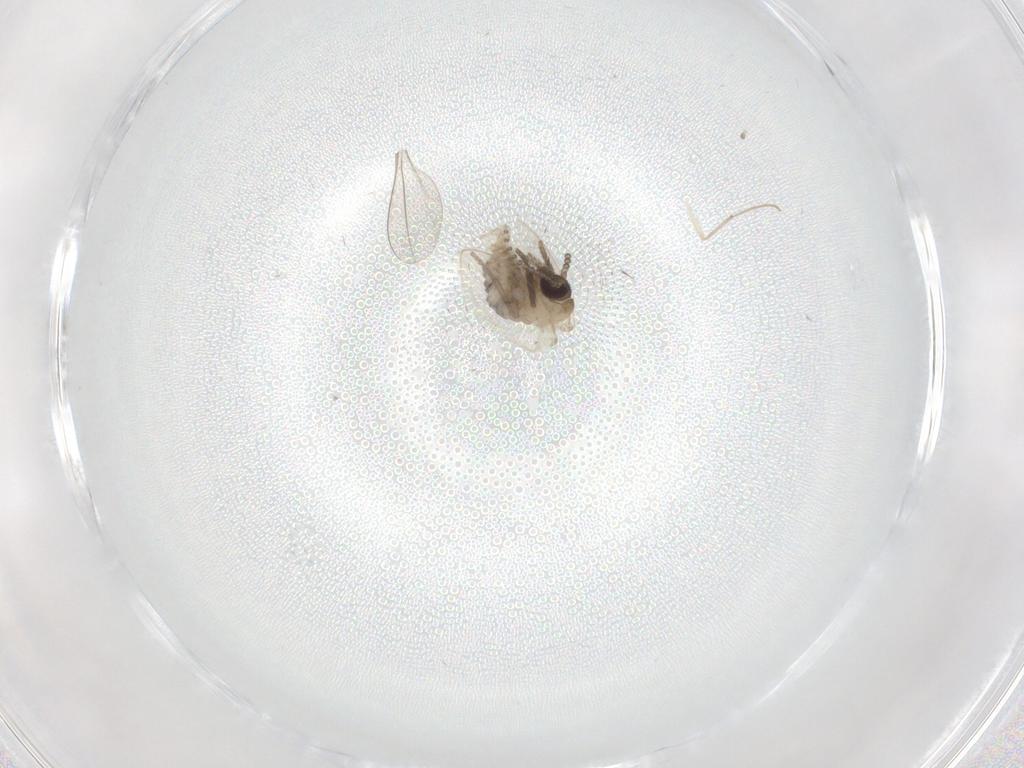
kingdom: Animalia
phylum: Arthropoda
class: Insecta
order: Diptera
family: Psychodidae
